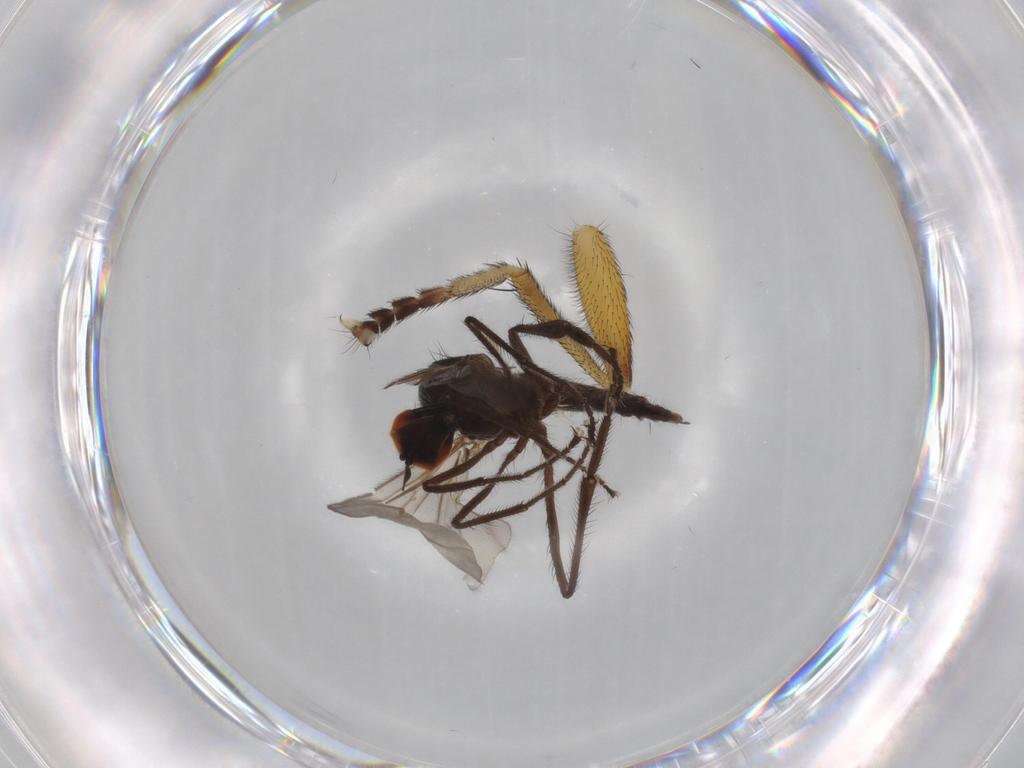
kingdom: Animalia
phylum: Arthropoda
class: Insecta
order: Diptera
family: Hybotidae
